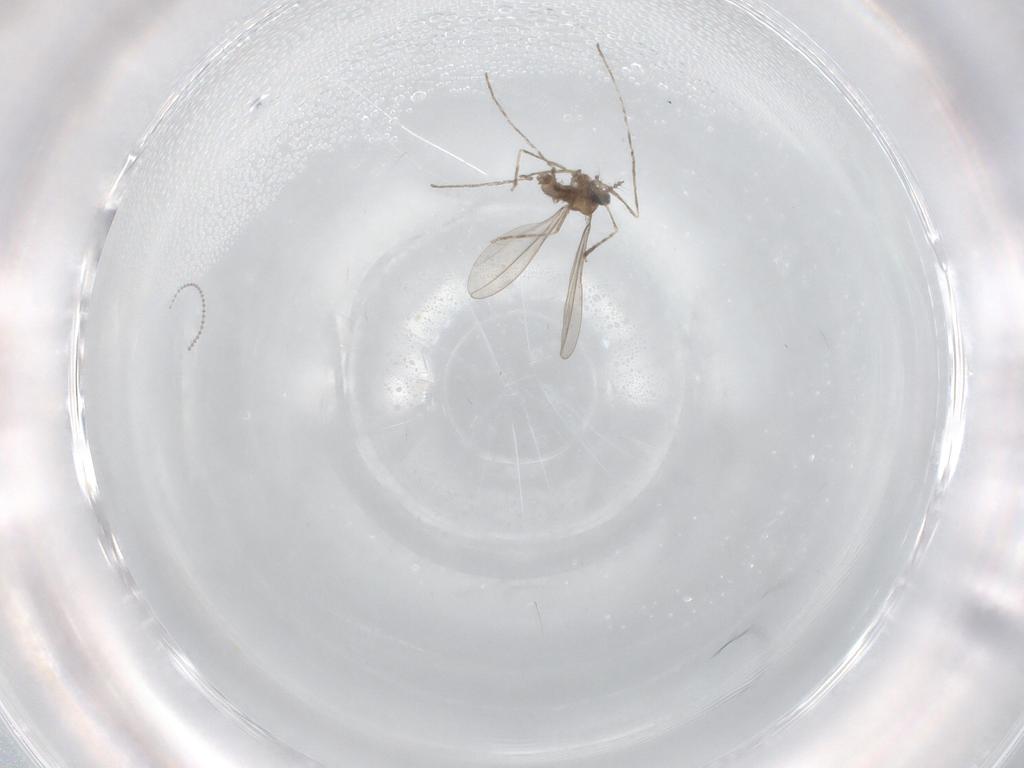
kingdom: Animalia
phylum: Arthropoda
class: Insecta
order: Diptera
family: Cecidomyiidae
